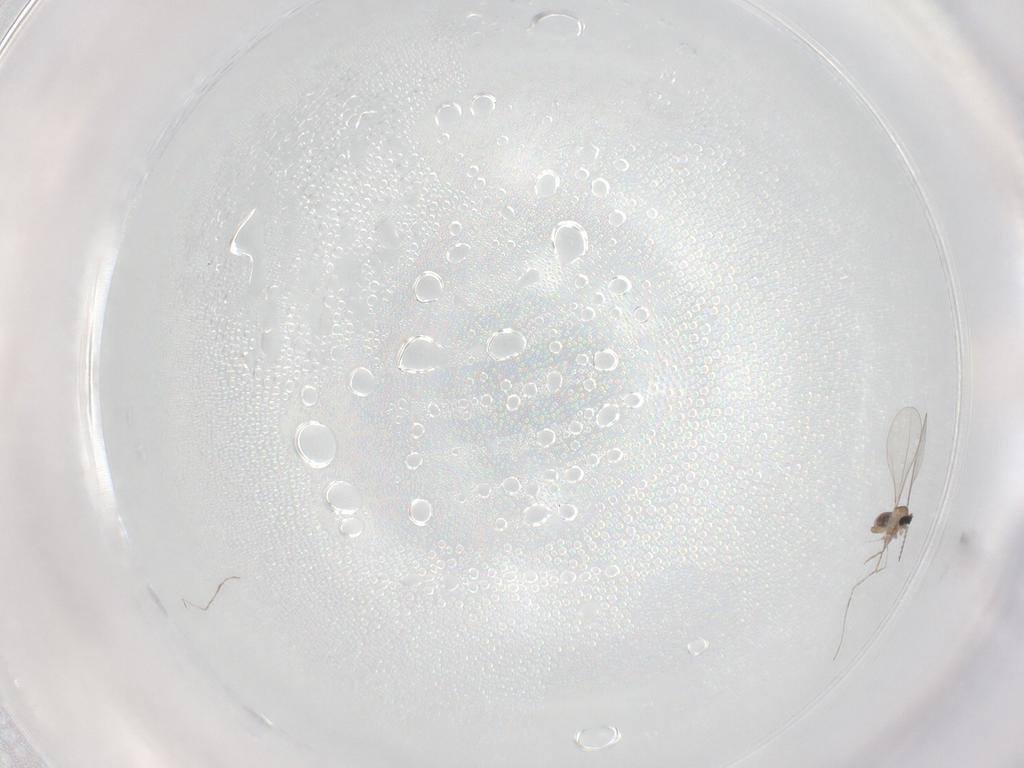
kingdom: Animalia
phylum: Arthropoda
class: Insecta
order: Diptera
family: Cecidomyiidae
